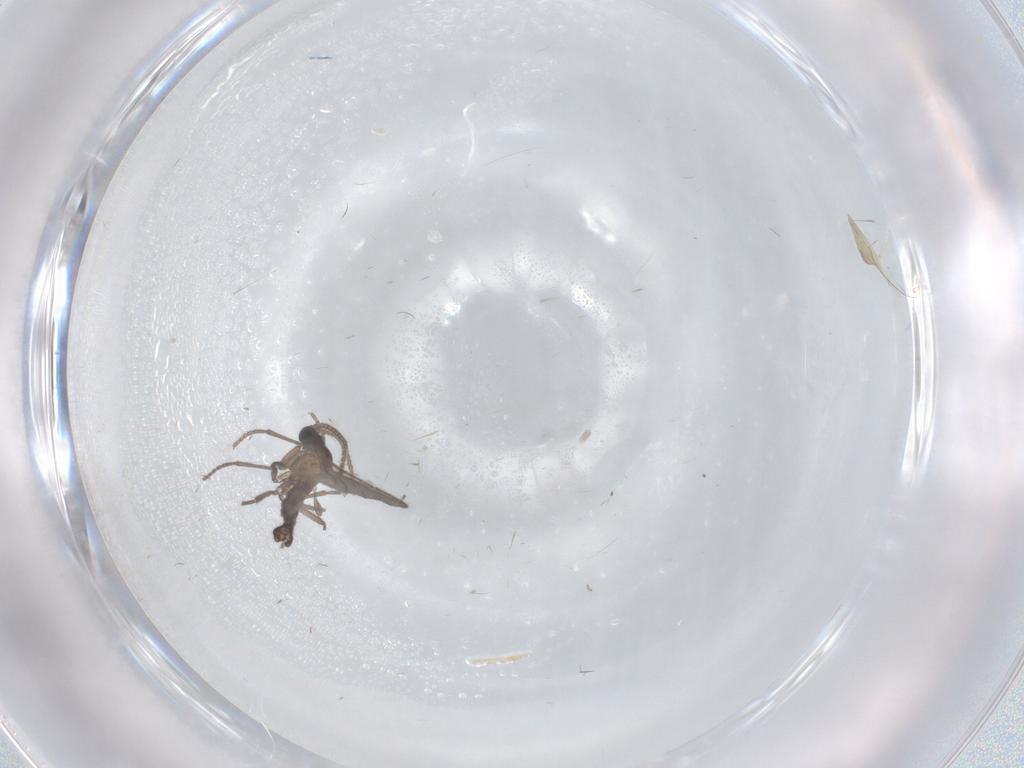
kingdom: Animalia
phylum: Arthropoda
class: Insecta
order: Diptera
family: Sciaridae
